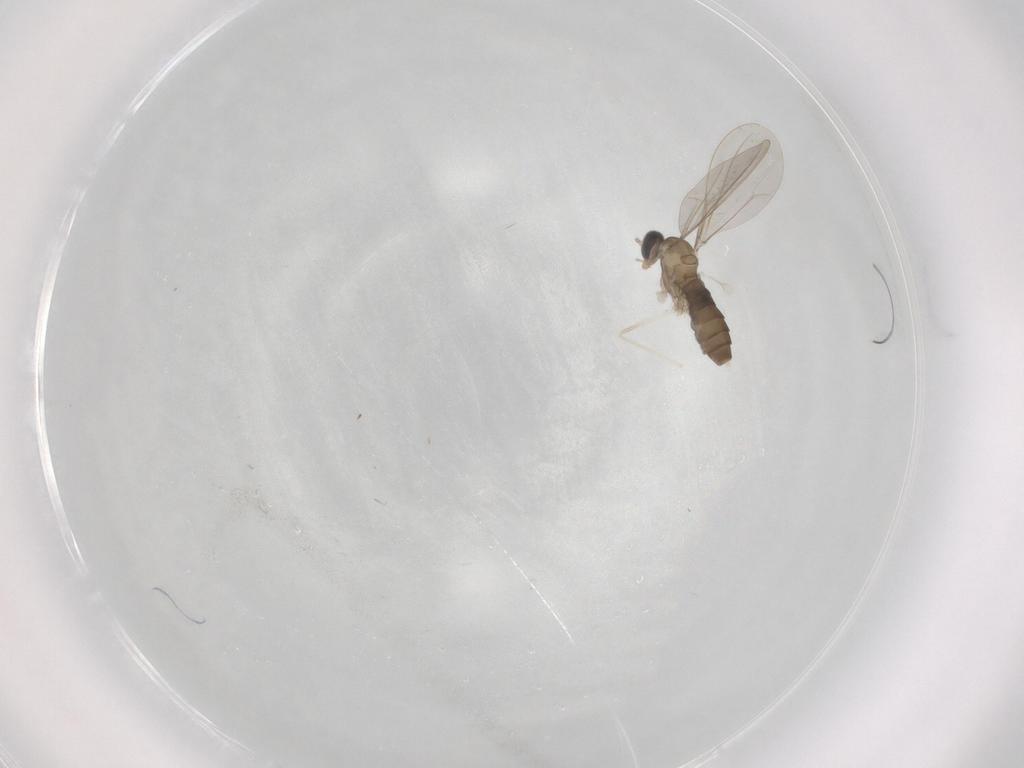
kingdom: Animalia
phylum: Arthropoda
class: Insecta
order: Diptera
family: Cecidomyiidae
